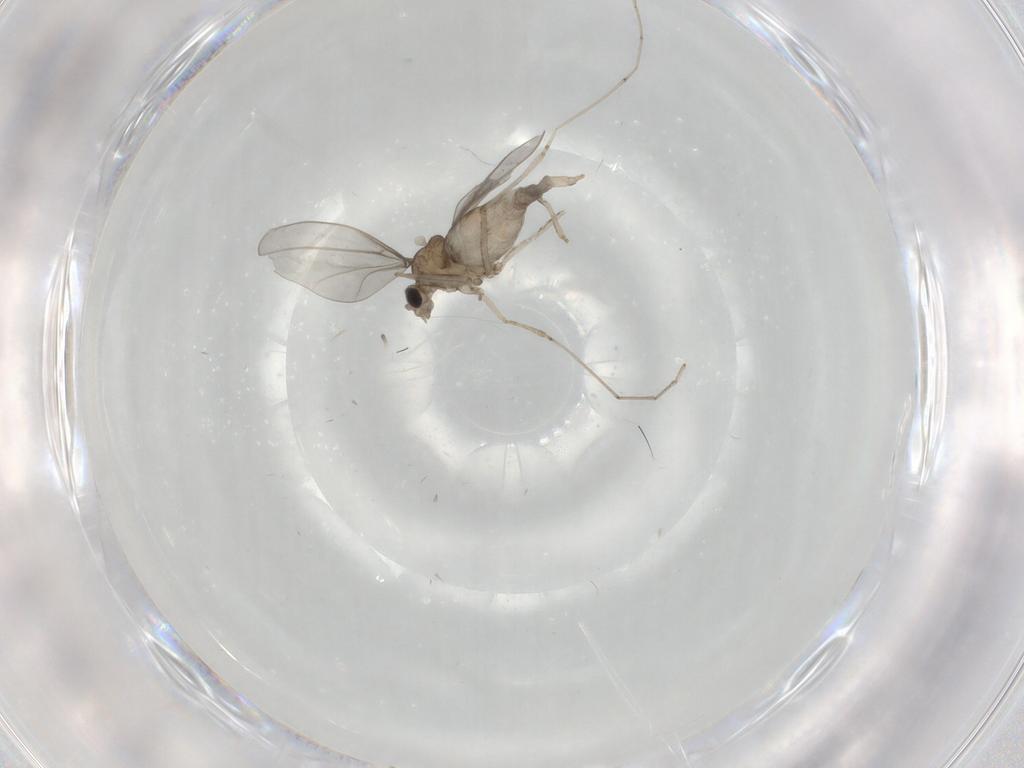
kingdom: Animalia
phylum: Arthropoda
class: Insecta
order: Diptera
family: Cecidomyiidae
